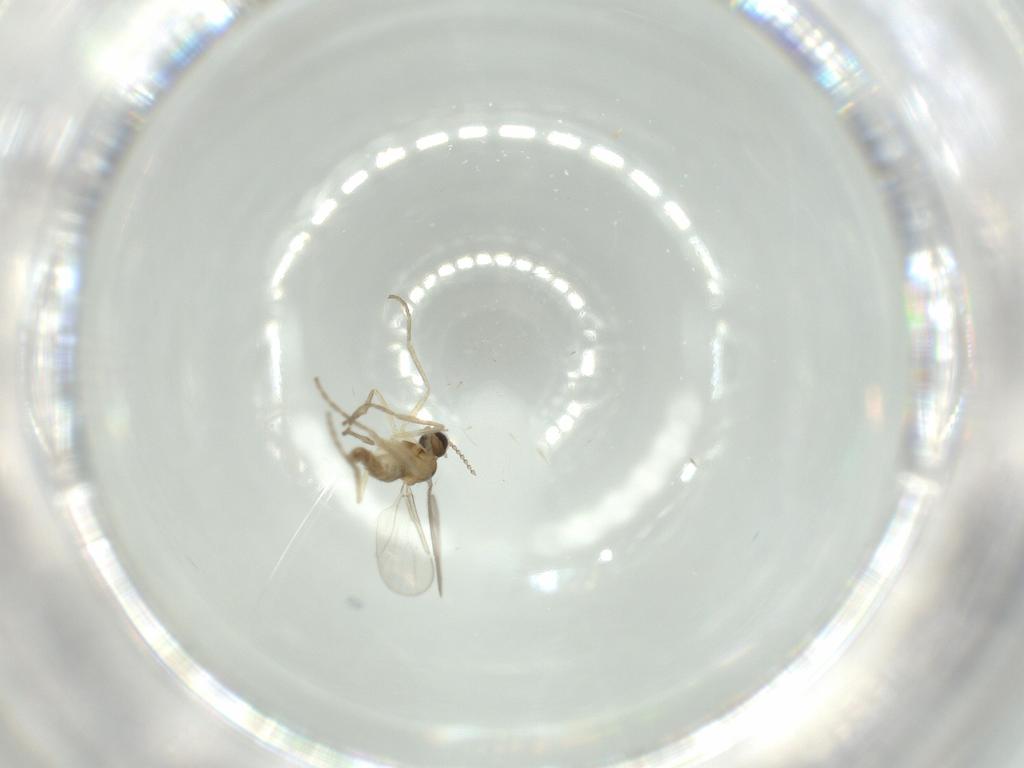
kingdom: Animalia
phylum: Arthropoda
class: Insecta
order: Diptera
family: Cecidomyiidae
